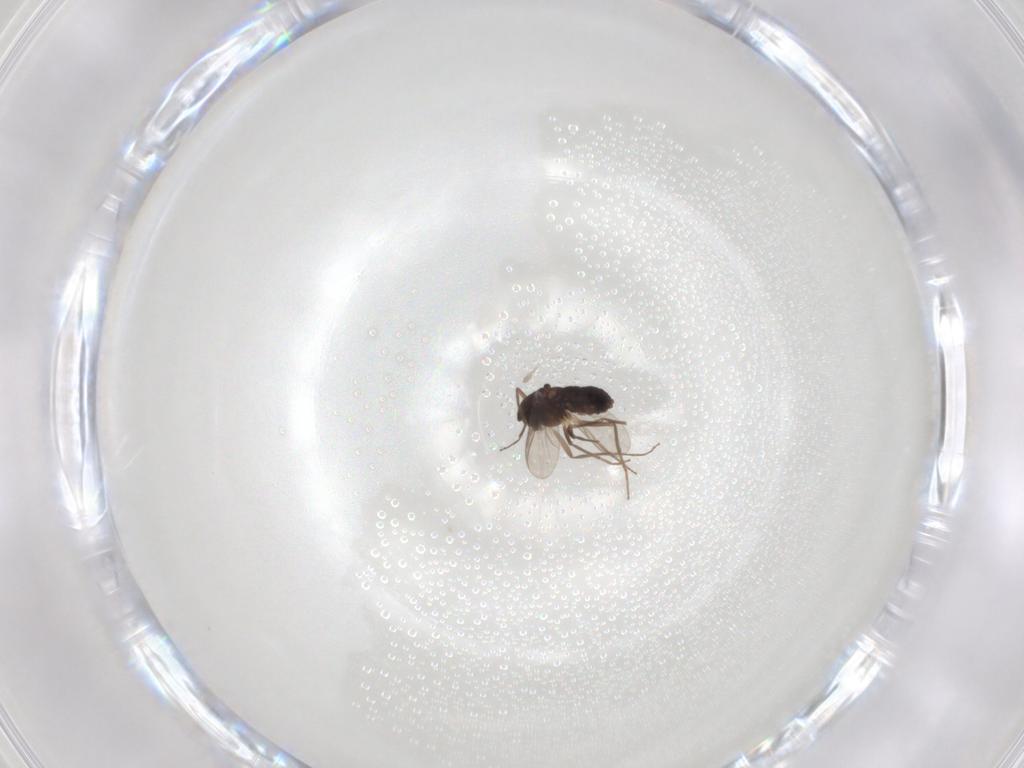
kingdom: Animalia
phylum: Arthropoda
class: Insecta
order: Diptera
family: Chironomidae
